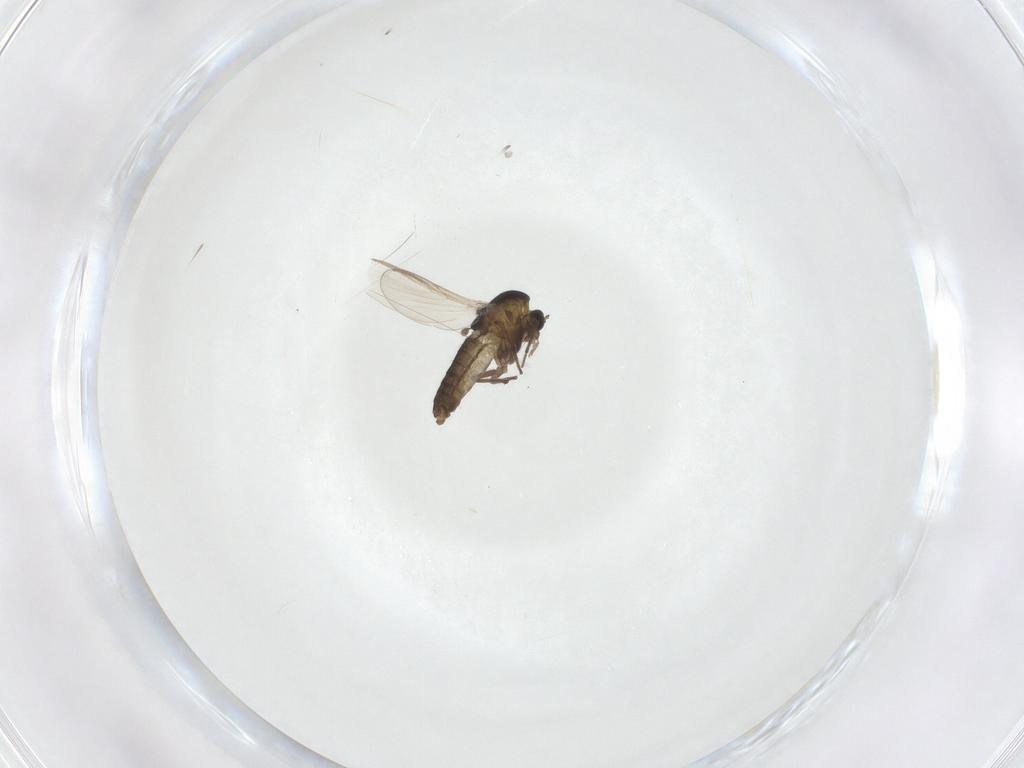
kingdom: Animalia
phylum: Arthropoda
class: Insecta
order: Diptera
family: Chironomidae
